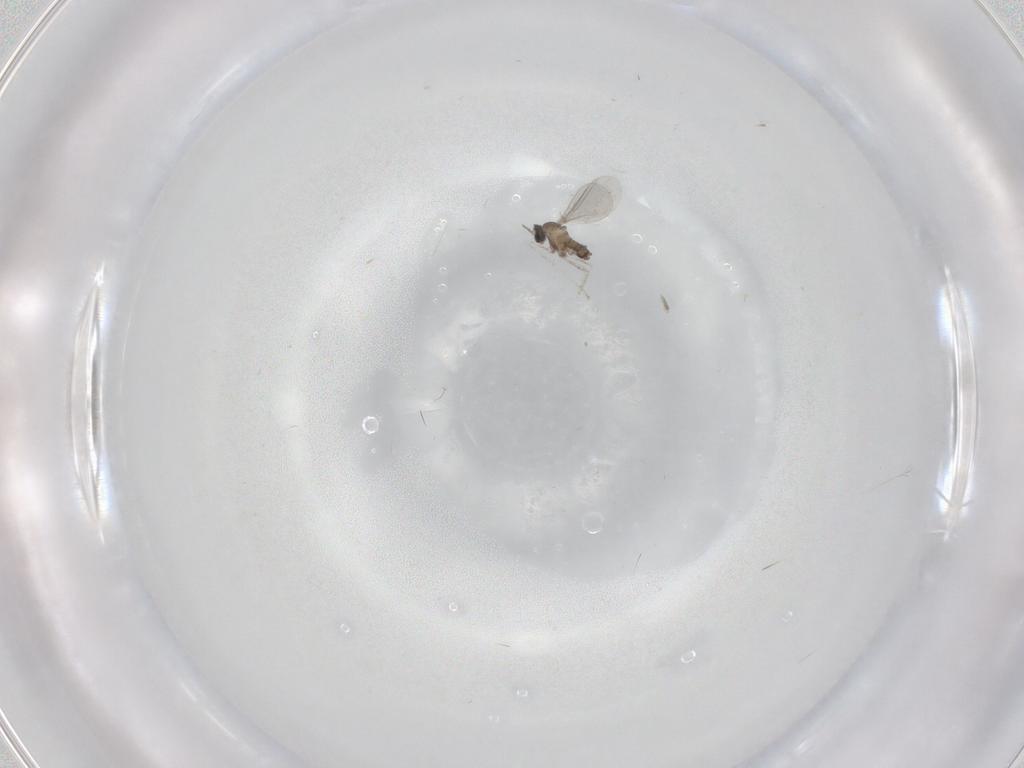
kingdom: Animalia
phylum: Arthropoda
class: Insecta
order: Diptera
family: Cecidomyiidae
